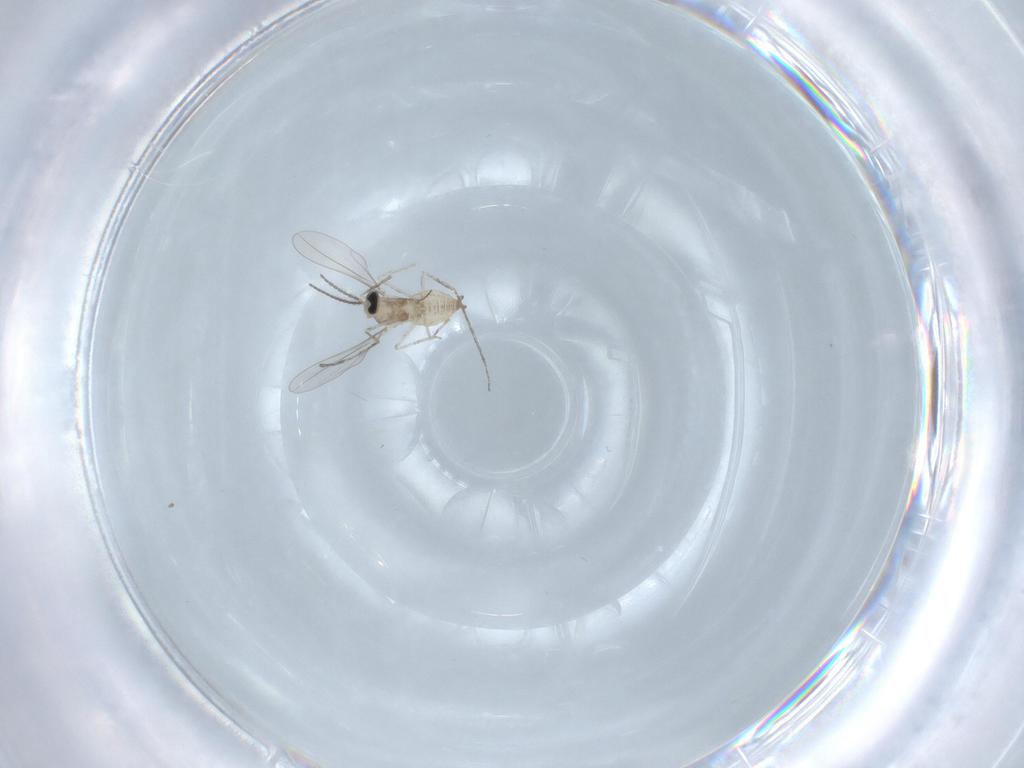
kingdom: Animalia
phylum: Arthropoda
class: Insecta
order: Diptera
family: Cecidomyiidae
